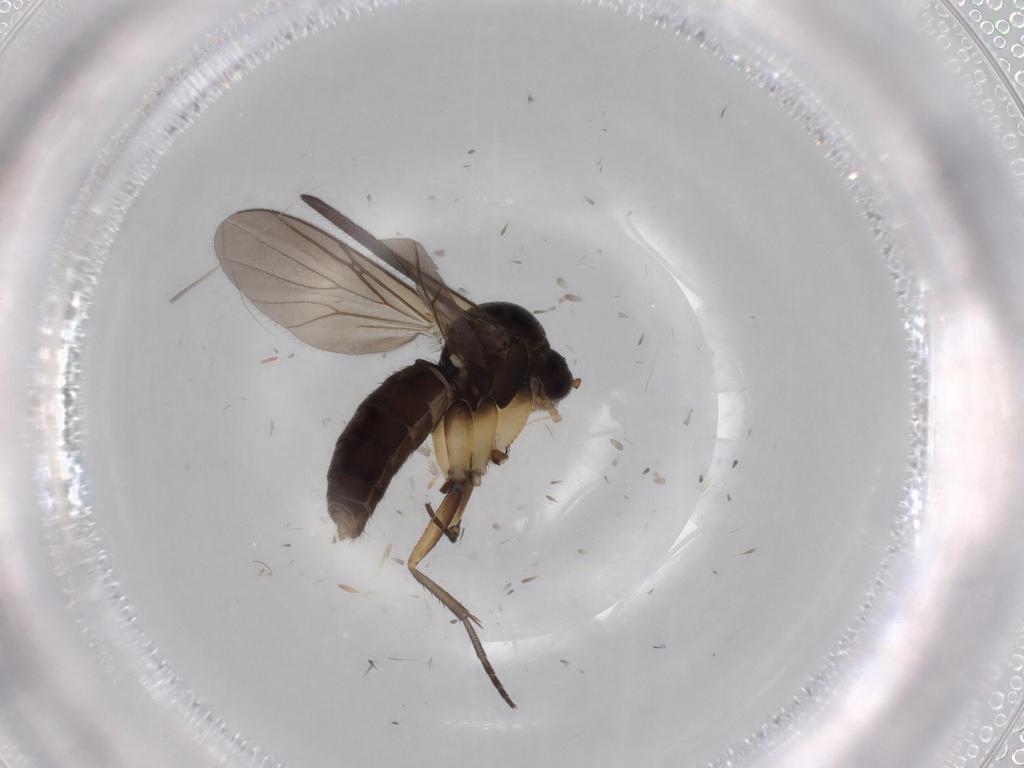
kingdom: Animalia
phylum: Arthropoda
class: Insecta
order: Diptera
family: Mycetophilidae
